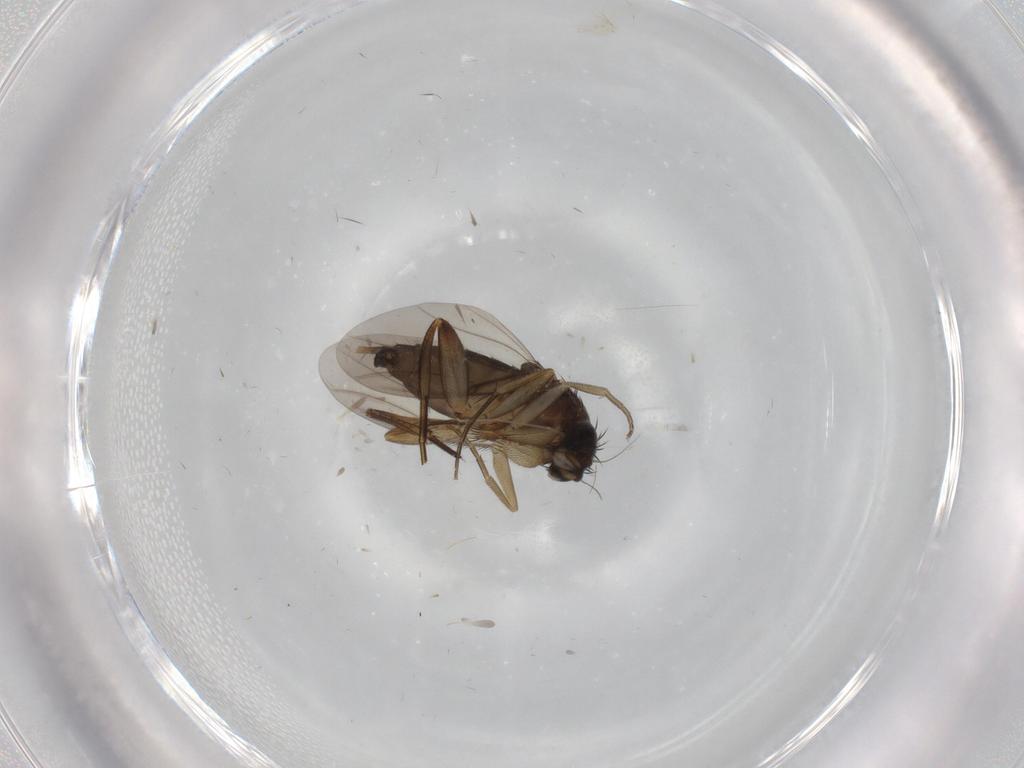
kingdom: Animalia
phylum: Arthropoda
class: Insecta
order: Diptera
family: Phoridae
